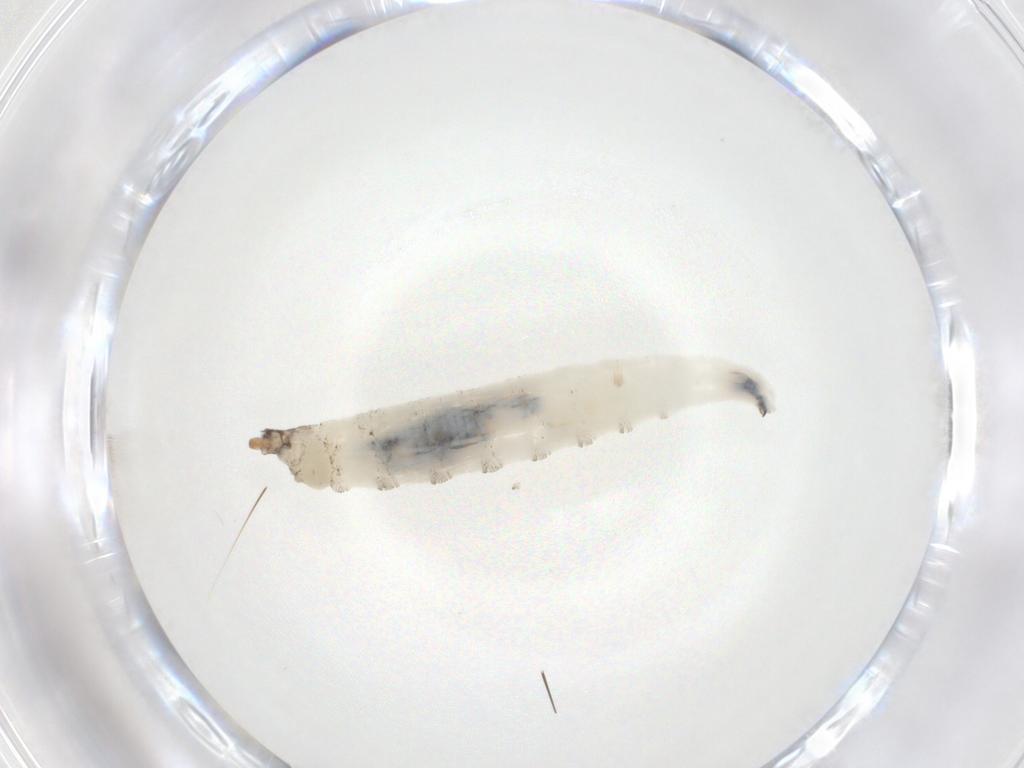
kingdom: Animalia
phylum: Arthropoda
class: Insecta
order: Diptera
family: Drosophilidae
